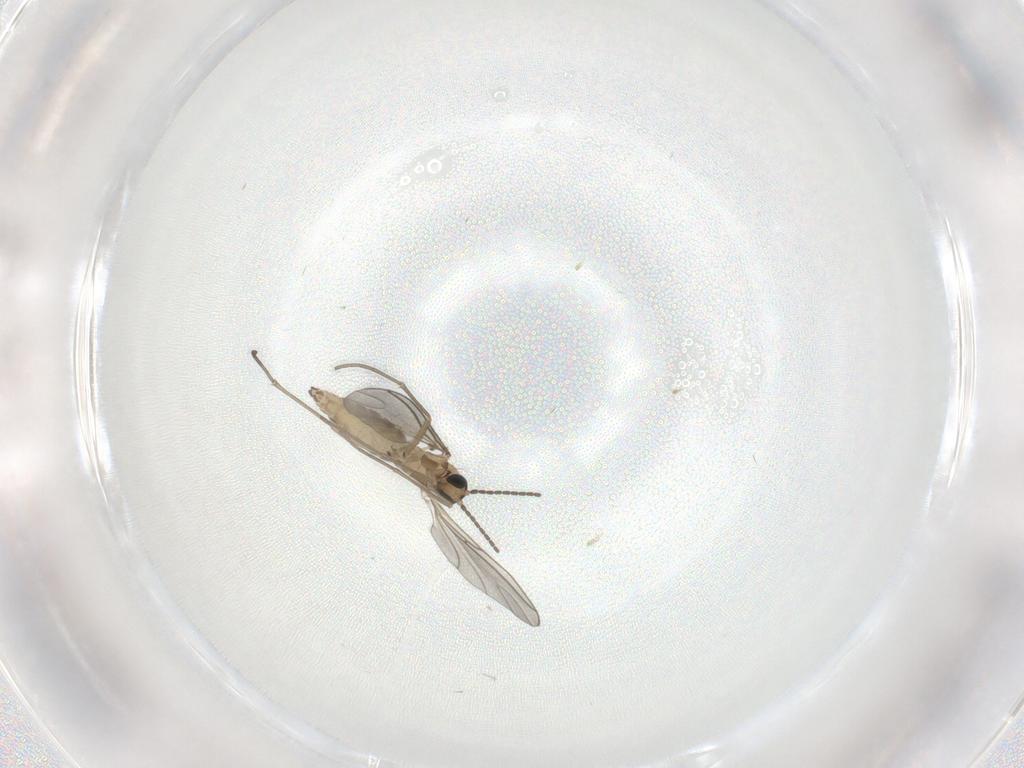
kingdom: Animalia
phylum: Arthropoda
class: Insecta
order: Diptera
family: Sciaridae
